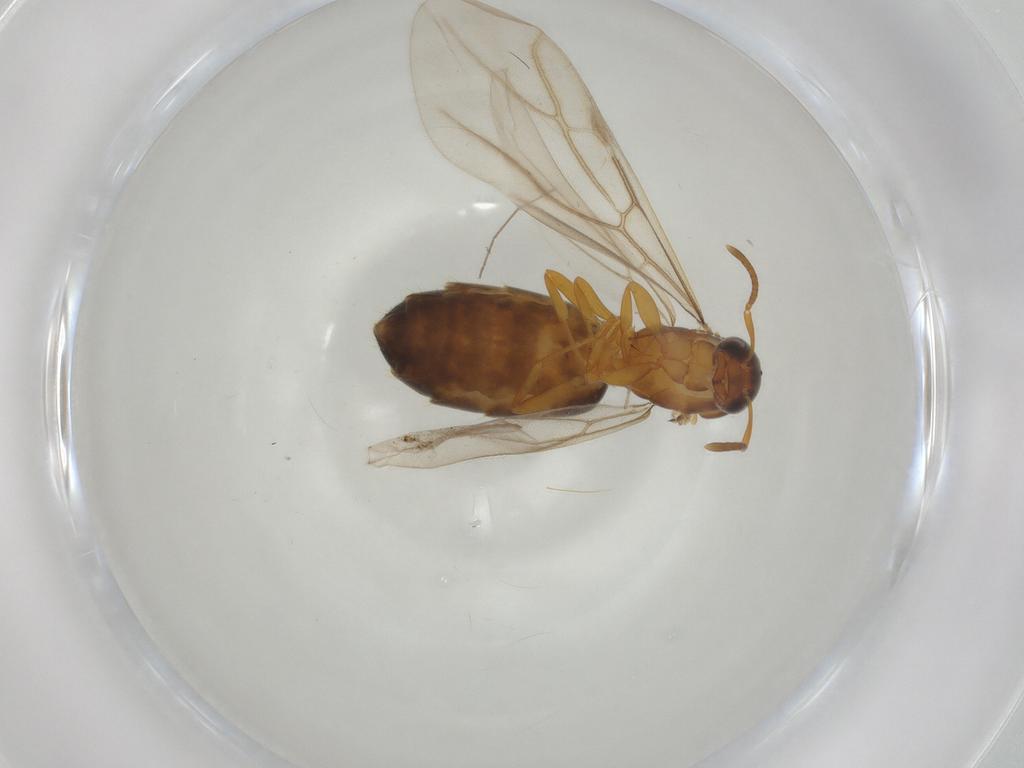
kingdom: Animalia
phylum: Arthropoda
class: Insecta
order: Hymenoptera
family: Formicidae
